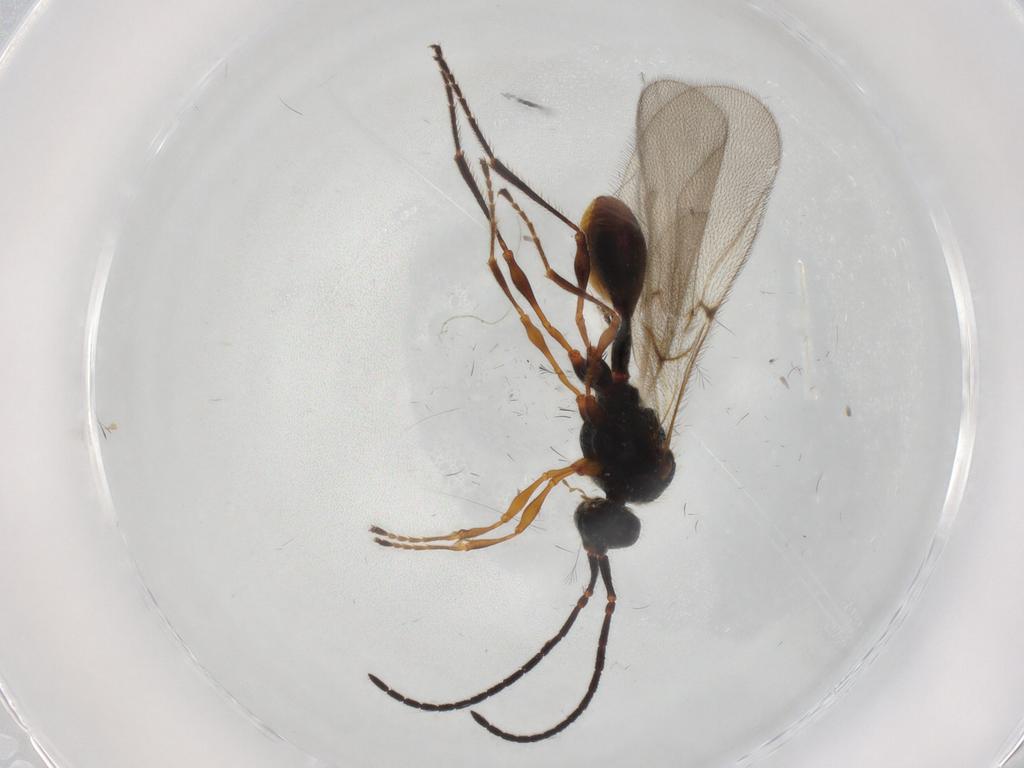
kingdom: Animalia
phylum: Arthropoda
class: Insecta
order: Hymenoptera
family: Diapriidae
